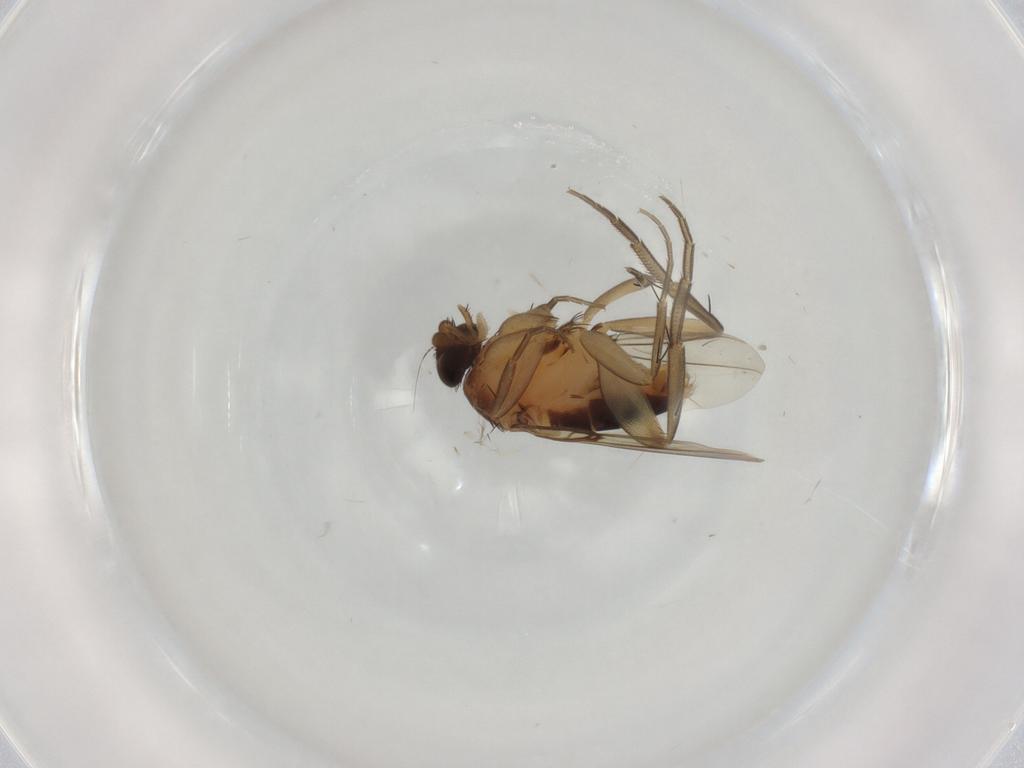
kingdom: Animalia
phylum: Arthropoda
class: Insecta
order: Diptera
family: Phoridae
